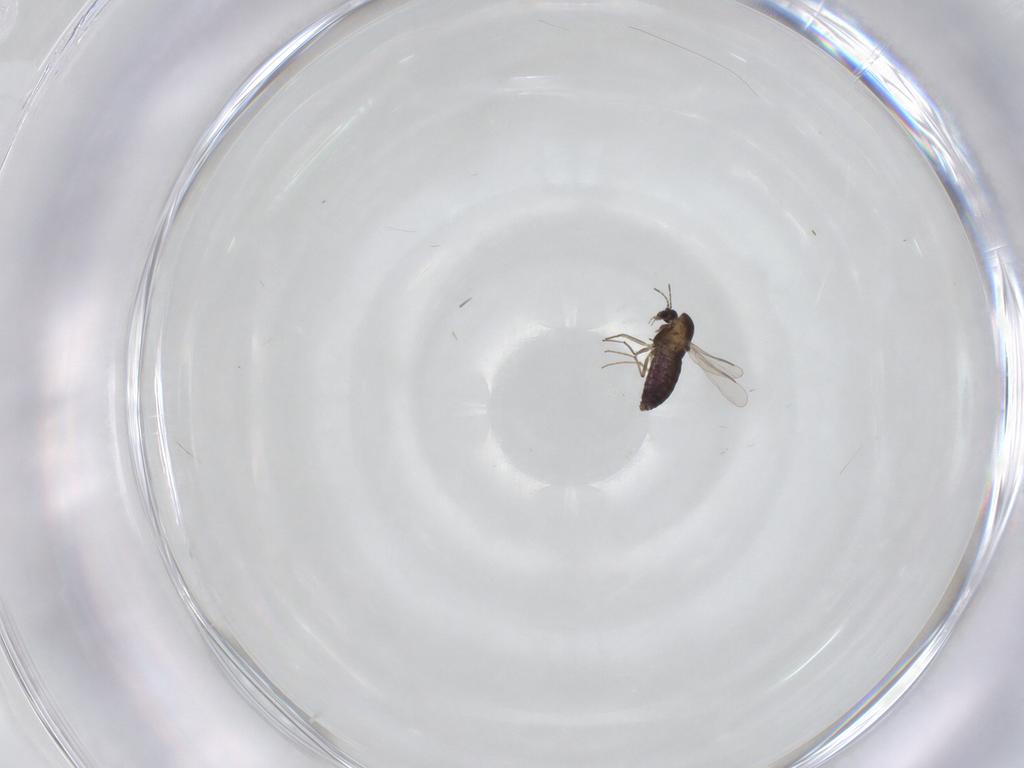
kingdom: Animalia
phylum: Arthropoda
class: Insecta
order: Diptera
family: Chironomidae
